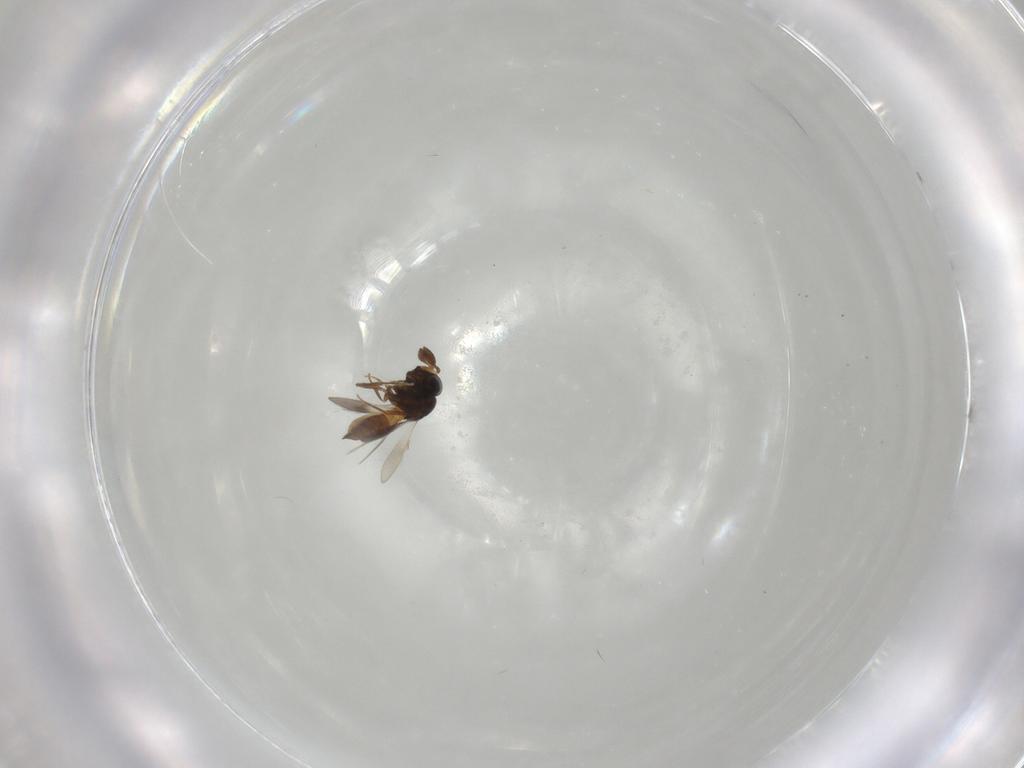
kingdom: Animalia
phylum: Arthropoda
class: Insecta
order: Hymenoptera
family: Scelionidae
